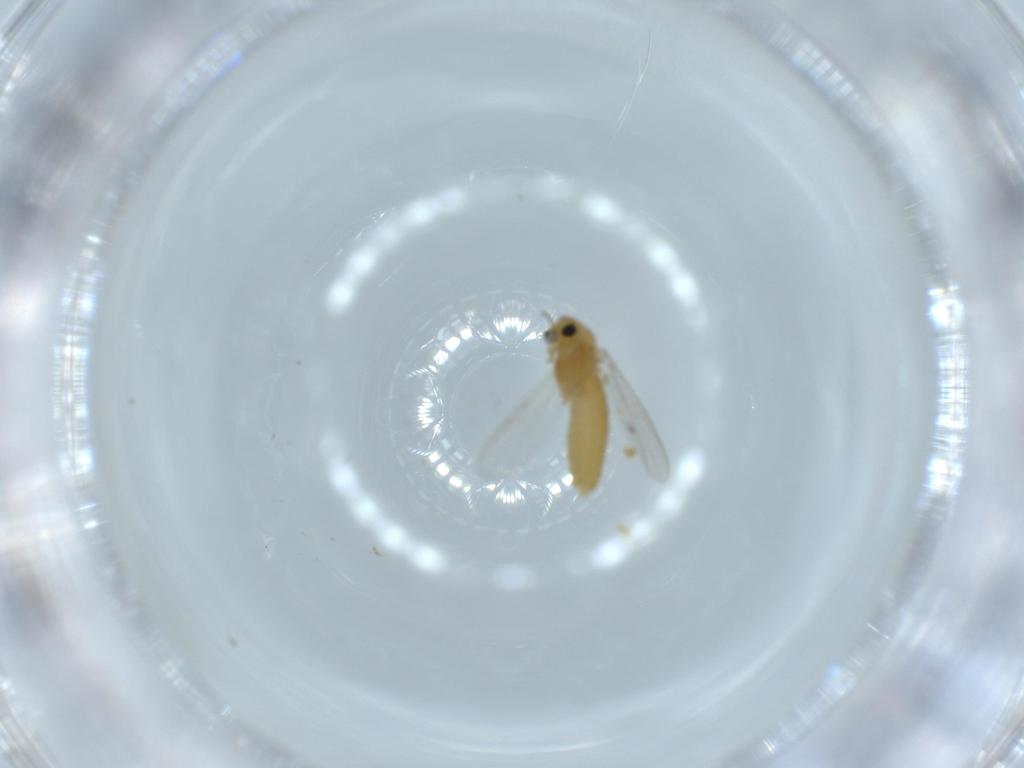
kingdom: Animalia
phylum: Arthropoda
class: Insecta
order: Diptera
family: Chironomidae
